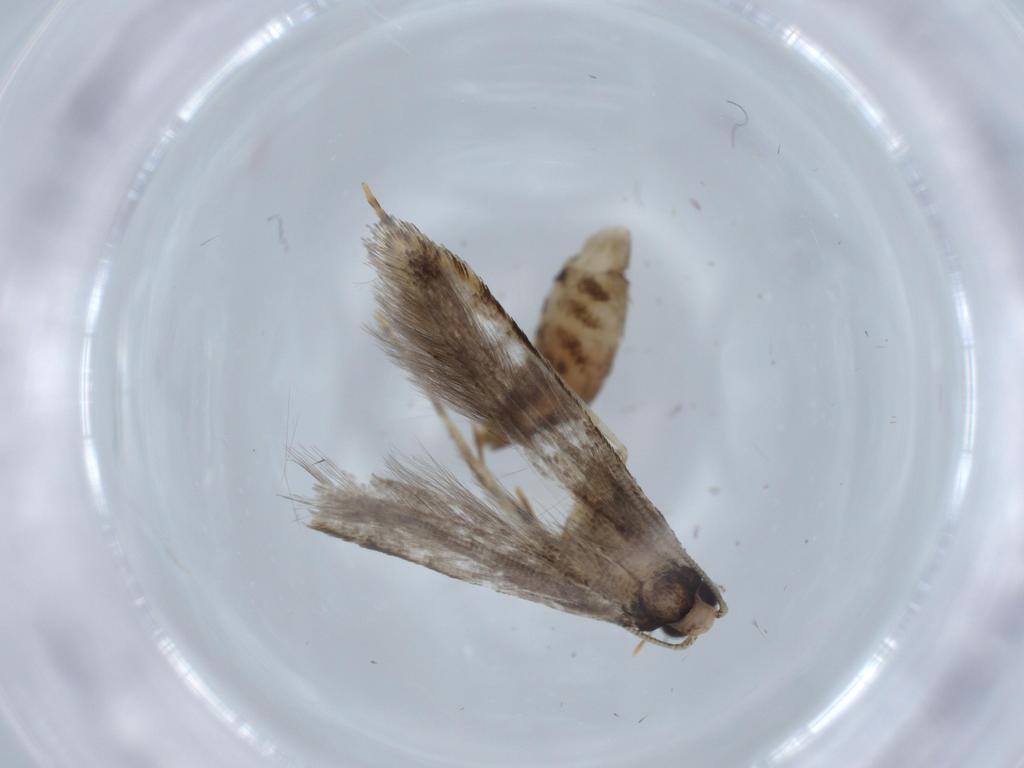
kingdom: Animalia
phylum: Arthropoda
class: Insecta
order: Lepidoptera
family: Tineidae
